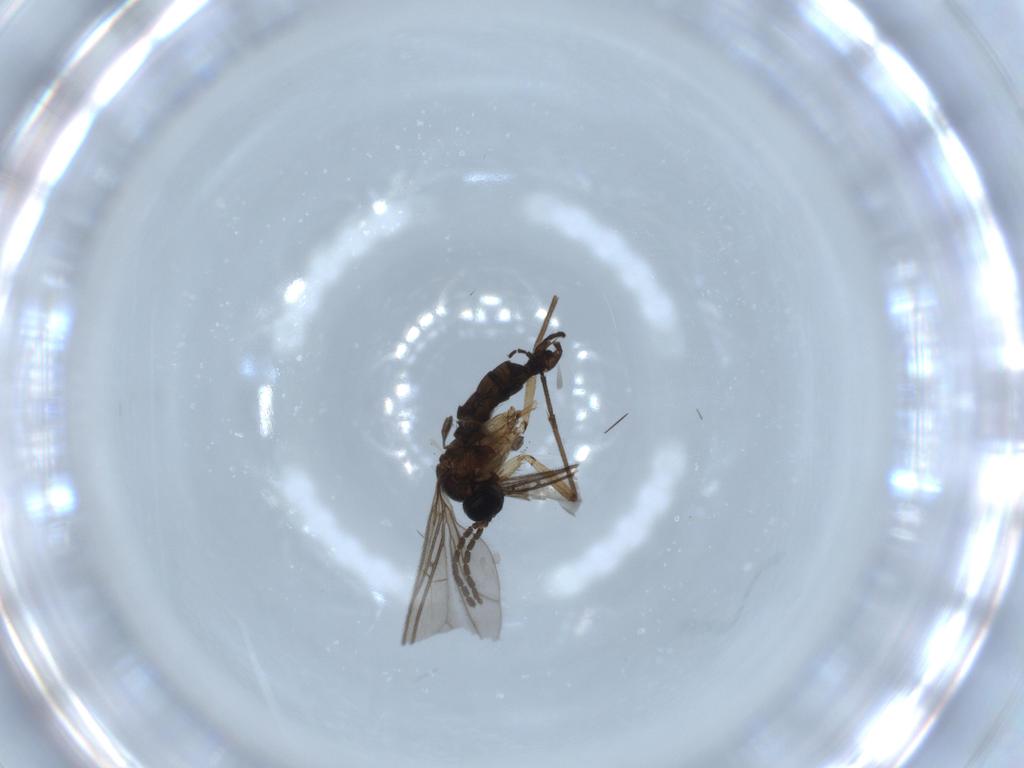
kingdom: Animalia
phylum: Arthropoda
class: Insecta
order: Diptera
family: Sciaridae
